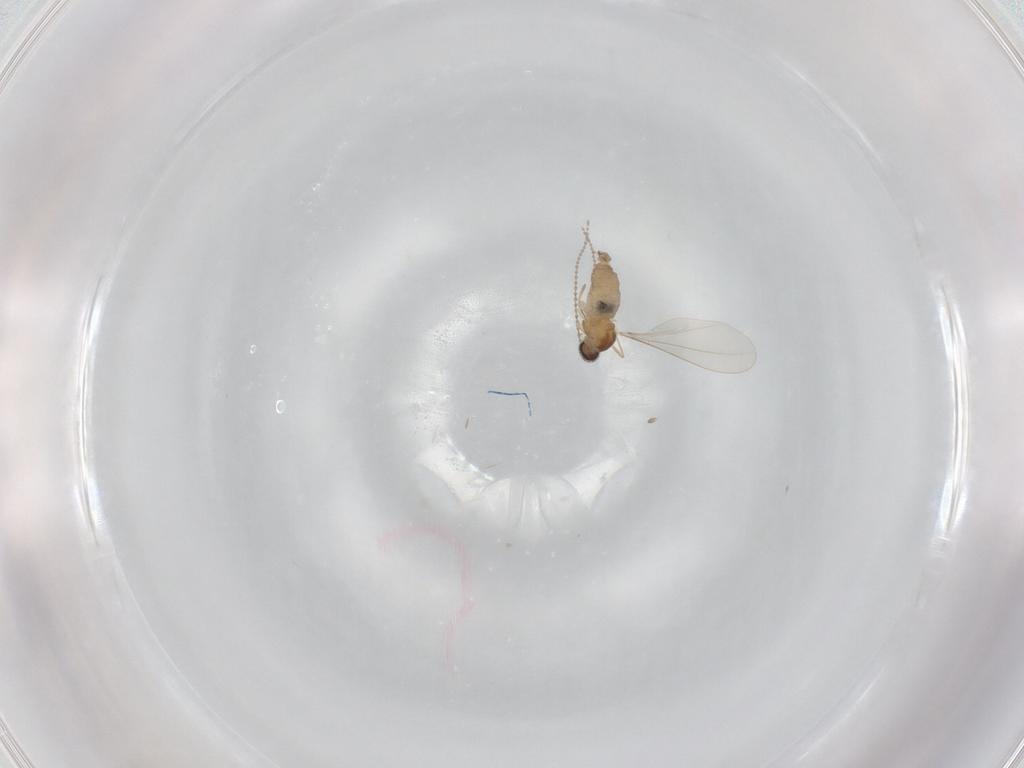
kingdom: Animalia
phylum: Arthropoda
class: Insecta
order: Diptera
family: Cecidomyiidae
